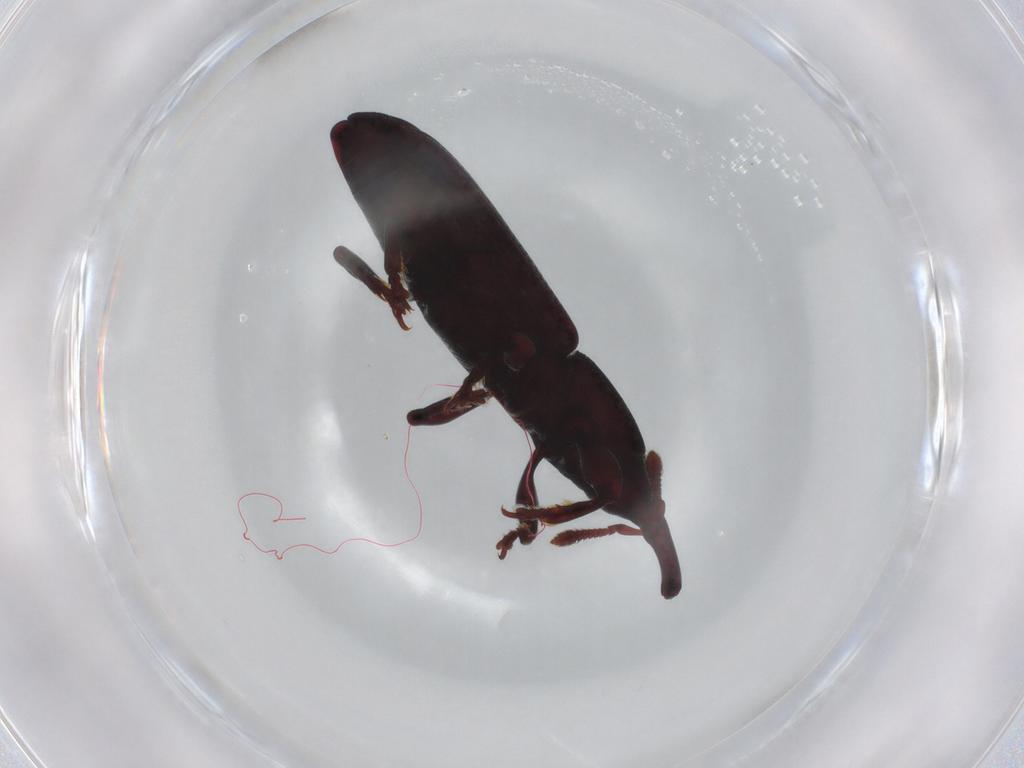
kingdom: Animalia
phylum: Arthropoda
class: Insecta
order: Coleoptera
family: Curculionidae
